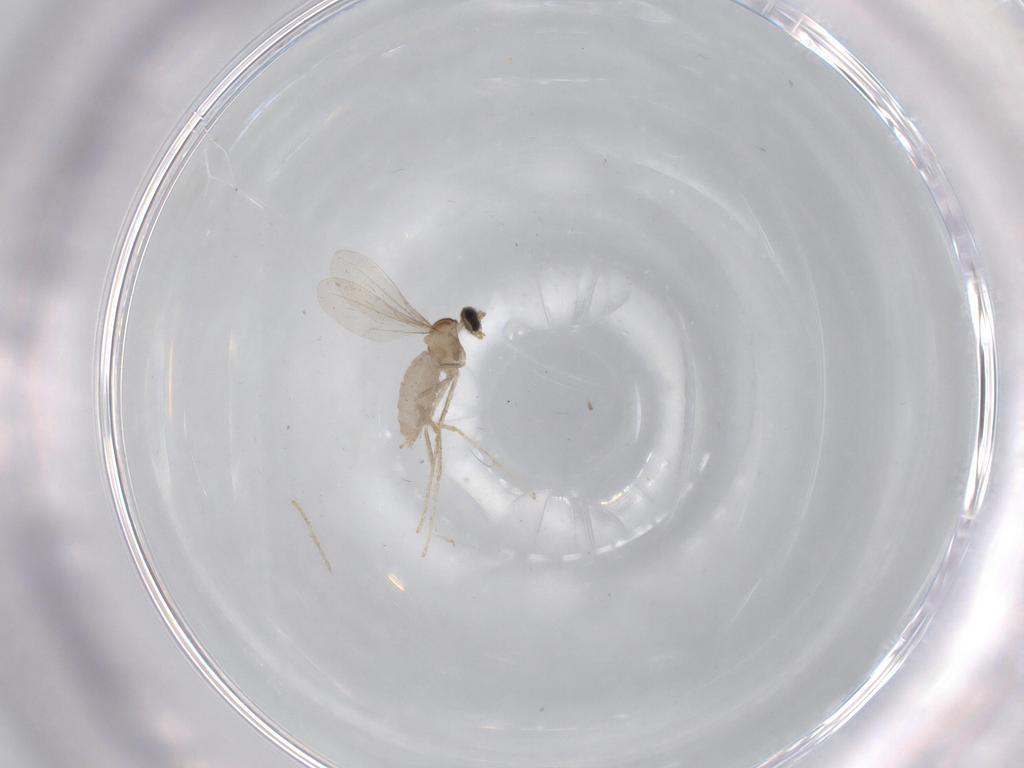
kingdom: Animalia
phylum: Arthropoda
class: Insecta
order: Diptera
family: Cecidomyiidae
